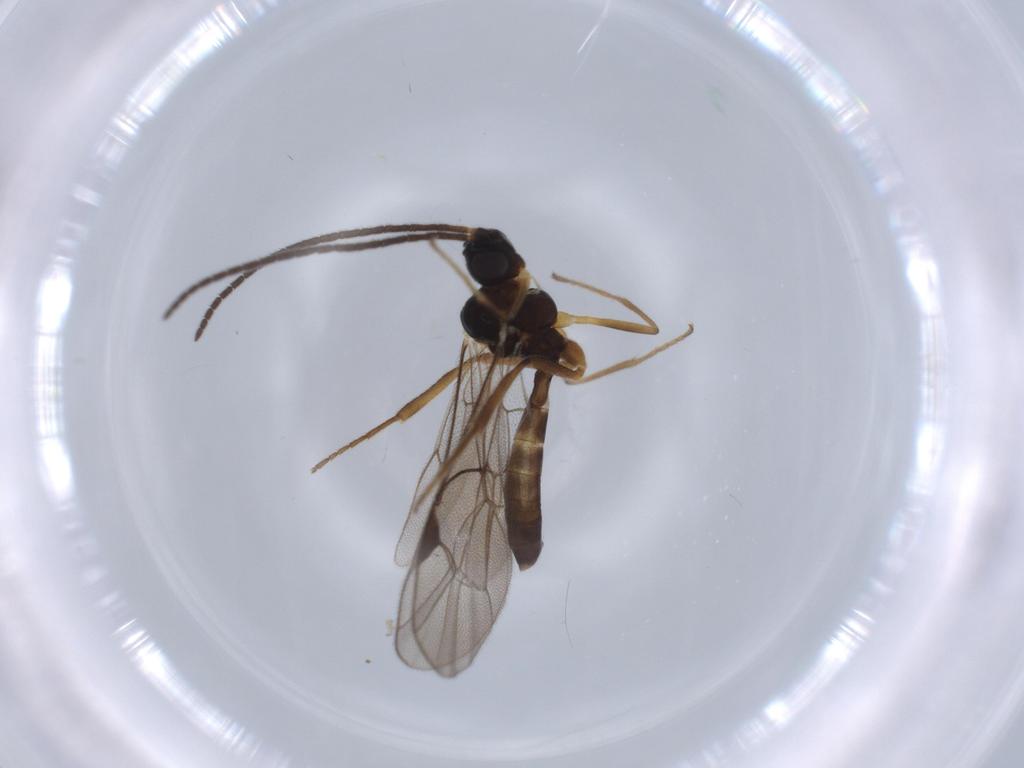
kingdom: Animalia
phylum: Arthropoda
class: Insecta
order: Hymenoptera
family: Ichneumonidae
